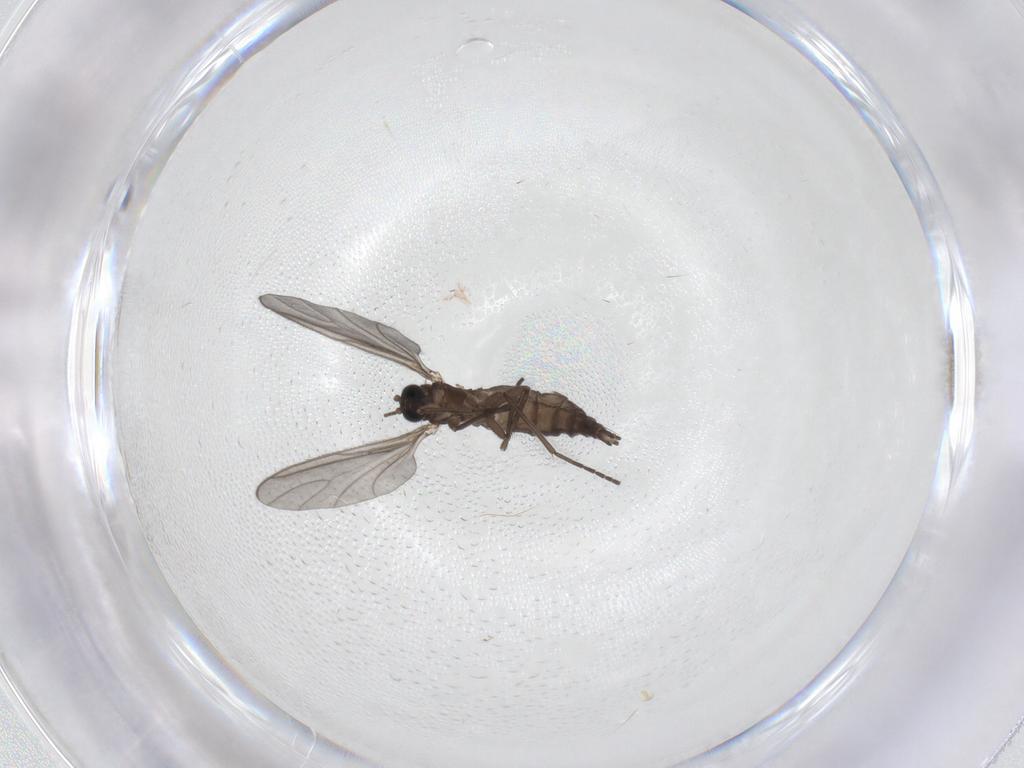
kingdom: Animalia
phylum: Arthropoda
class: Insecta
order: Diptera
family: Sciaridae
